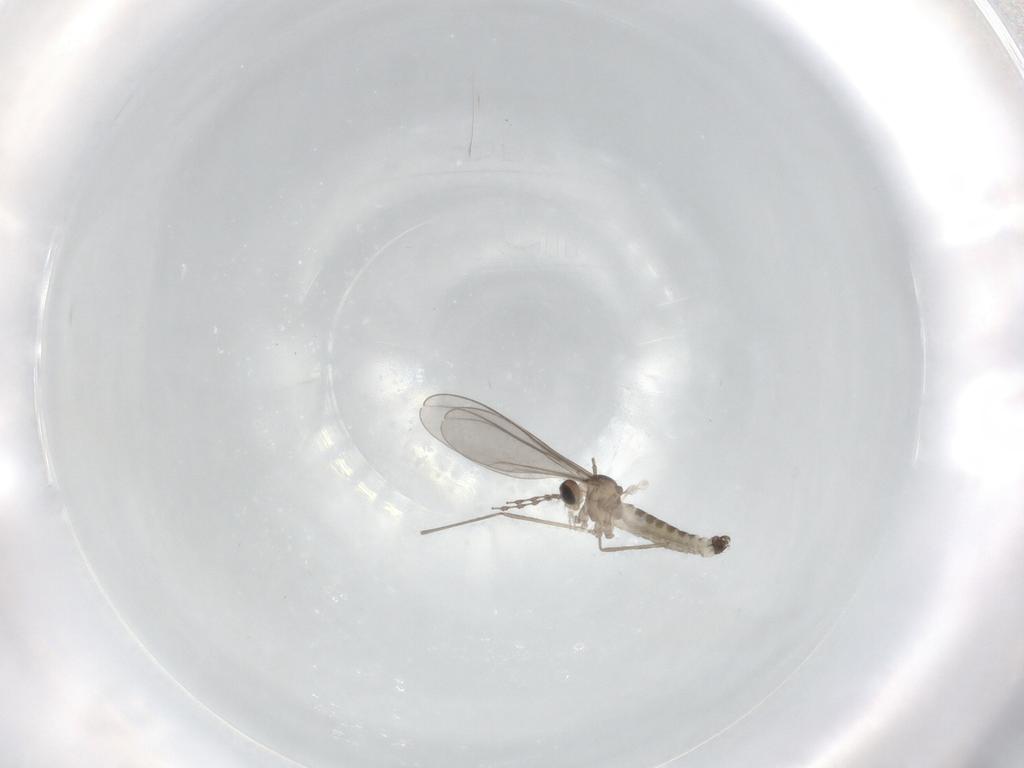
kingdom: Animalia
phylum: Arthropoda
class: Insecta
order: Diptera
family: Cecidomyiidae
